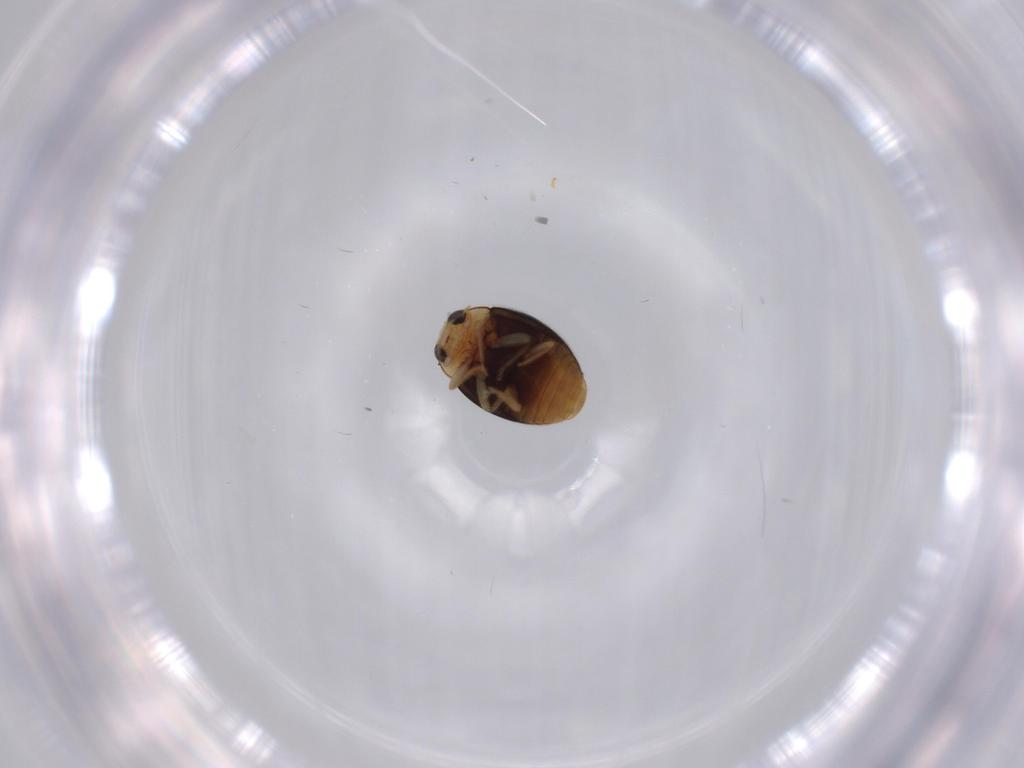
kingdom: Animalia
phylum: Arthropoda
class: Insecta
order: Coleoptera
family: Coccinellidae
